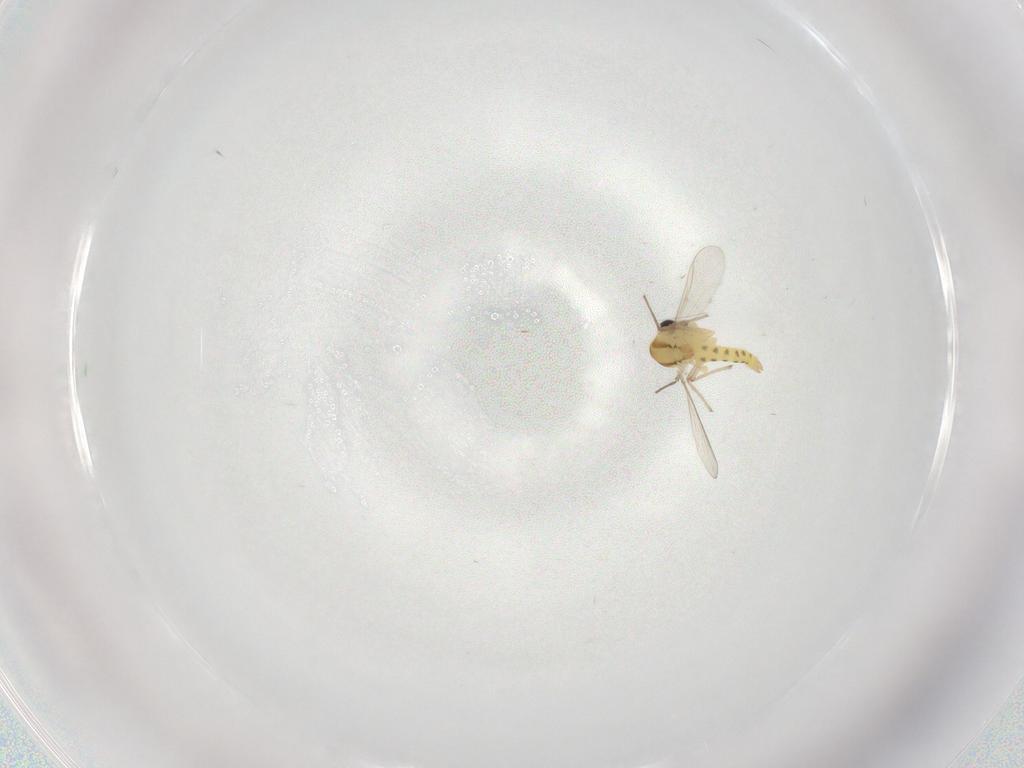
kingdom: Animalia
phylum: Arthropoda
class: Insecta
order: Diptera
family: Chironomidae
